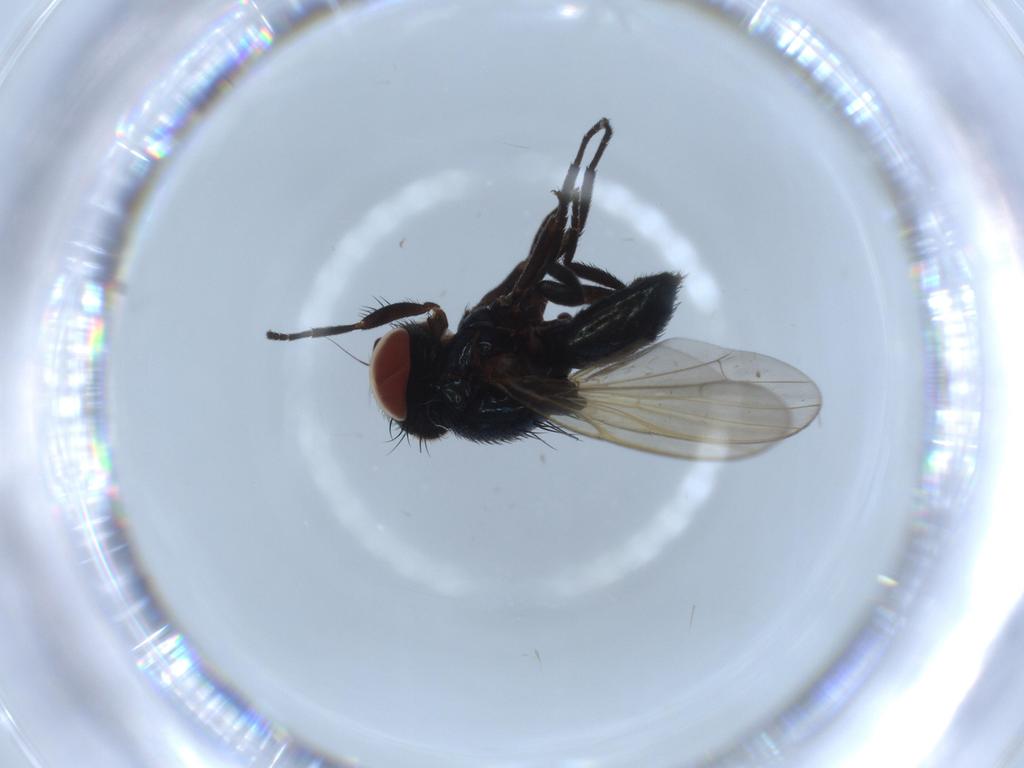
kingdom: Animalia
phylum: Arthropoda
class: Insecta
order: Diptera
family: Lonchaeidae
